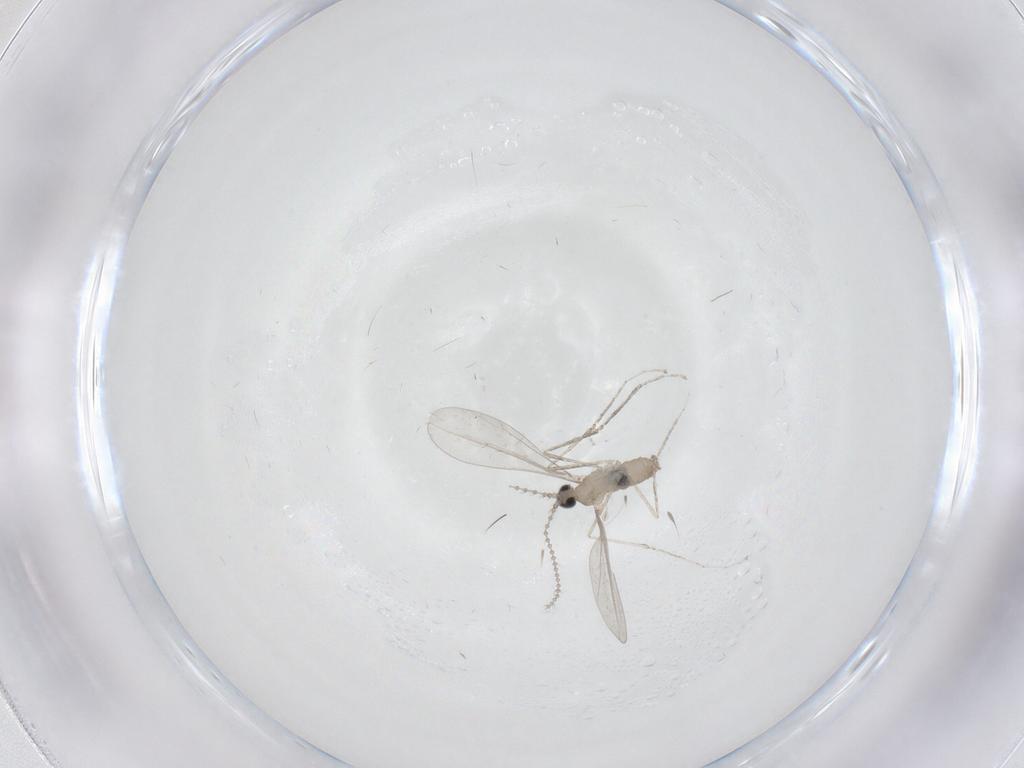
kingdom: Animalia
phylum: Arthropoda
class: Insecta
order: Diptera
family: Cecidomyiidae
